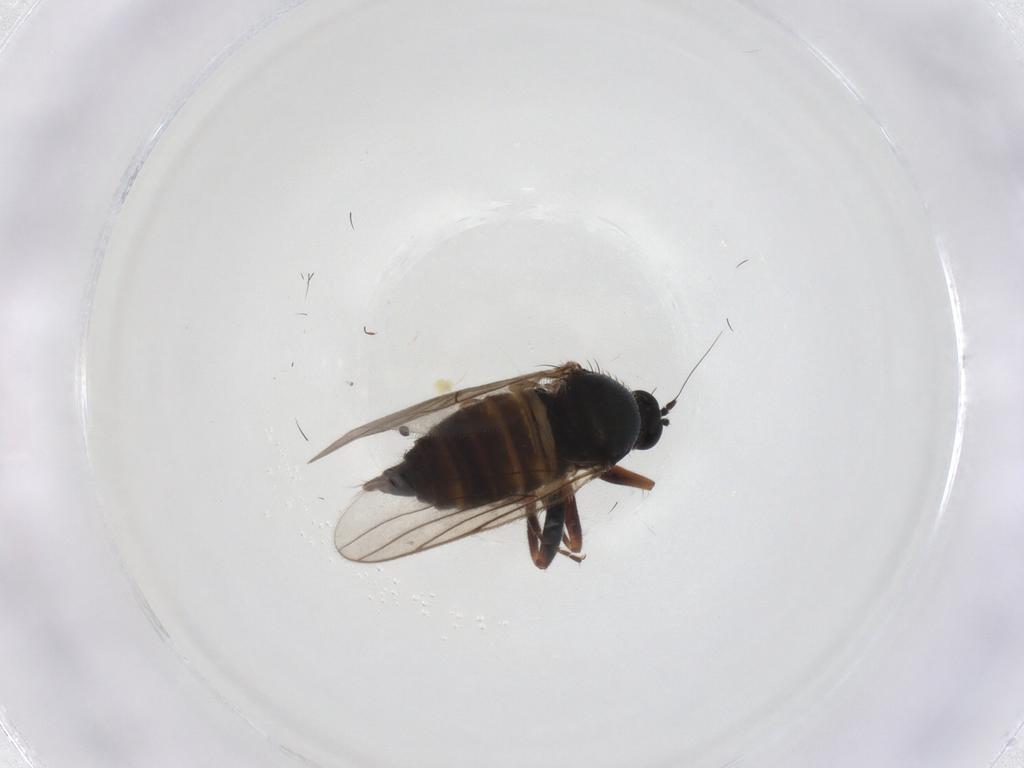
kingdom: Animalia
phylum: Arthropoda
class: Insecta
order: Diptera
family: Hybotidae
